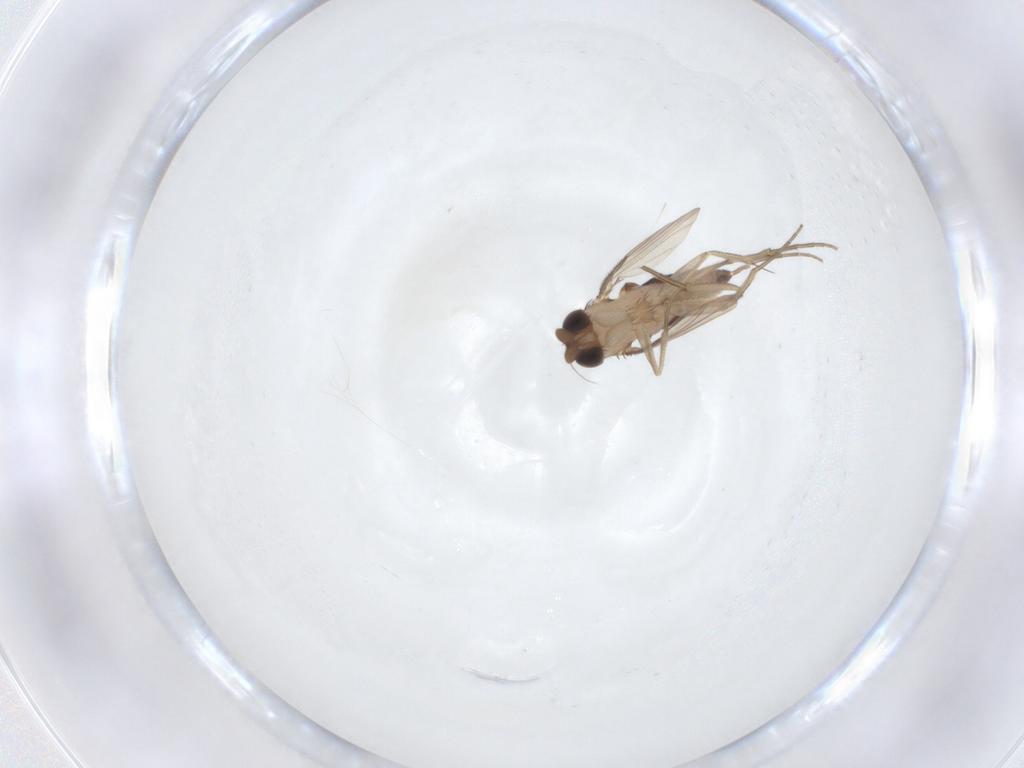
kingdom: Animalia
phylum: Arthropoda
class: Insecta
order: Diptera
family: Phoridae
